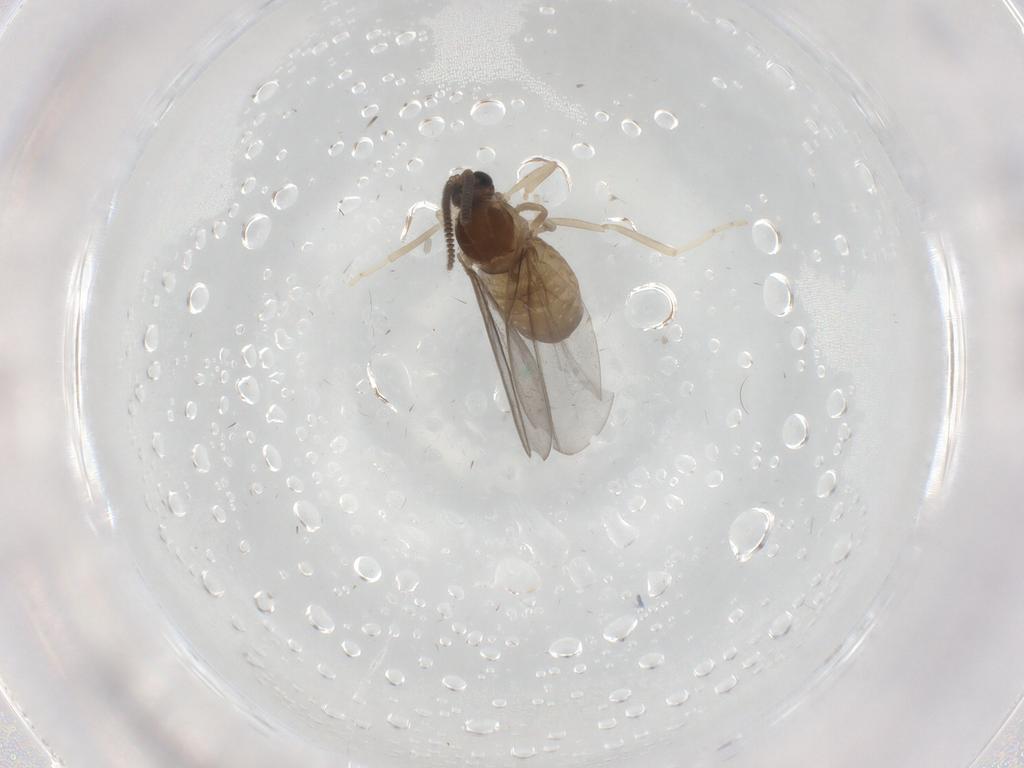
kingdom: Animalia
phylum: Arthropoda
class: Insecta
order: Diptera
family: Cecidomyiidae
